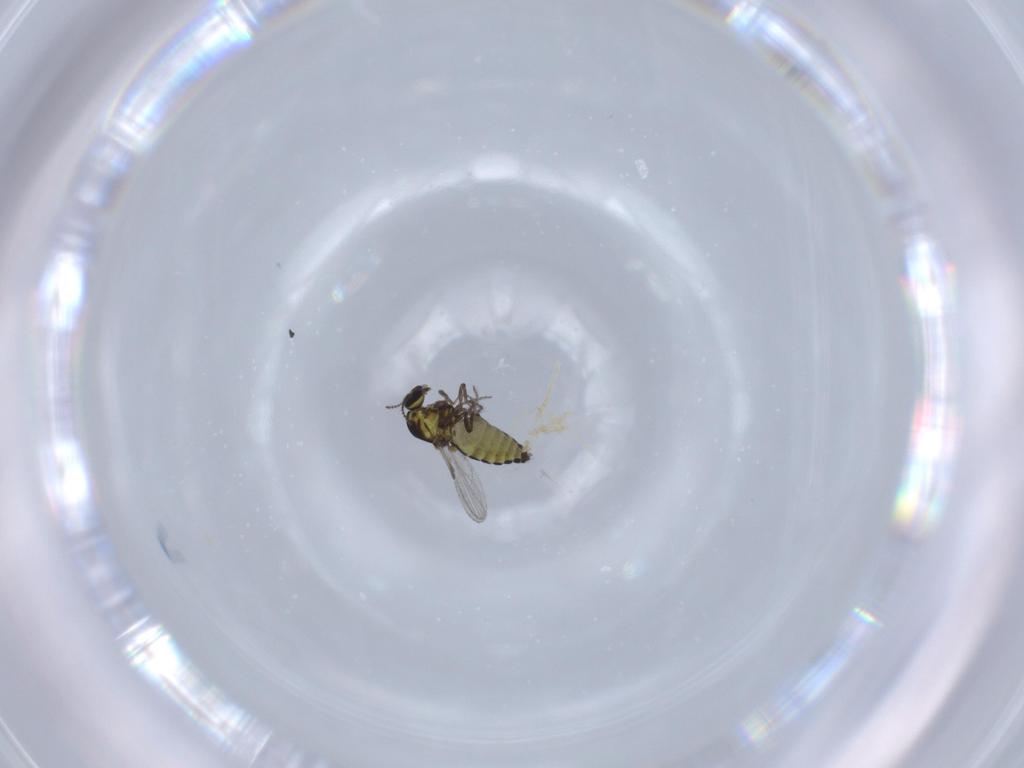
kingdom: Animalia
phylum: Arthropoda
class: Insecta
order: Diptera
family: Ceratopogonidae
